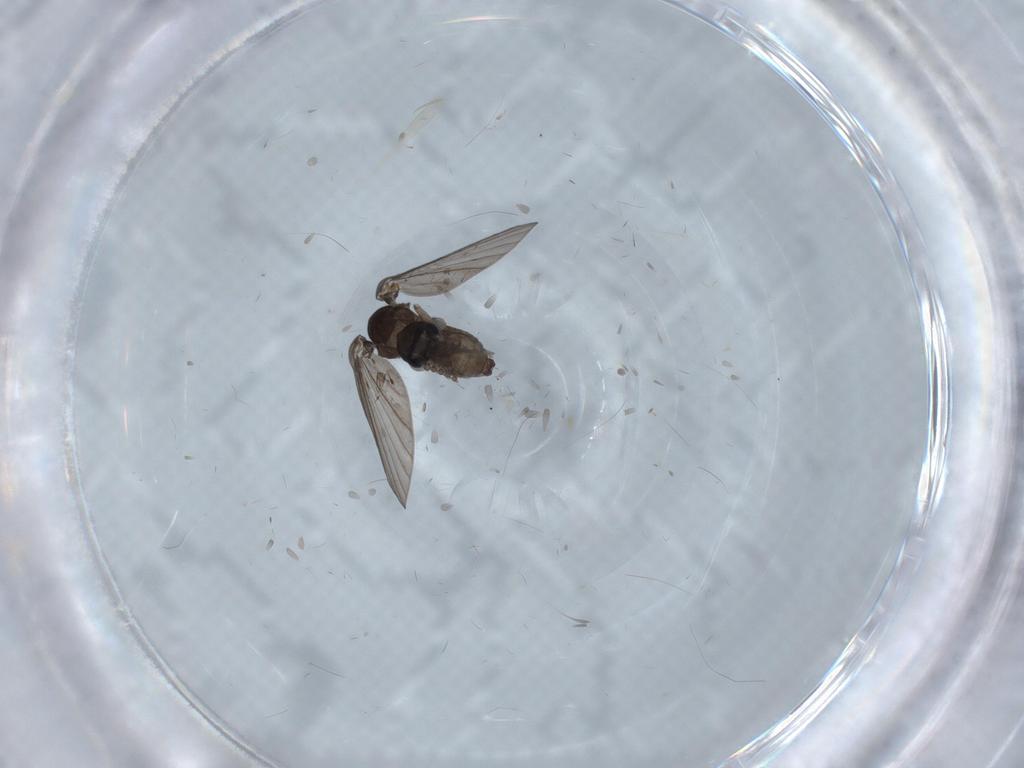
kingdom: Animalia
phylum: Arthropoda
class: Insecta
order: Diptera
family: Psychodidae
